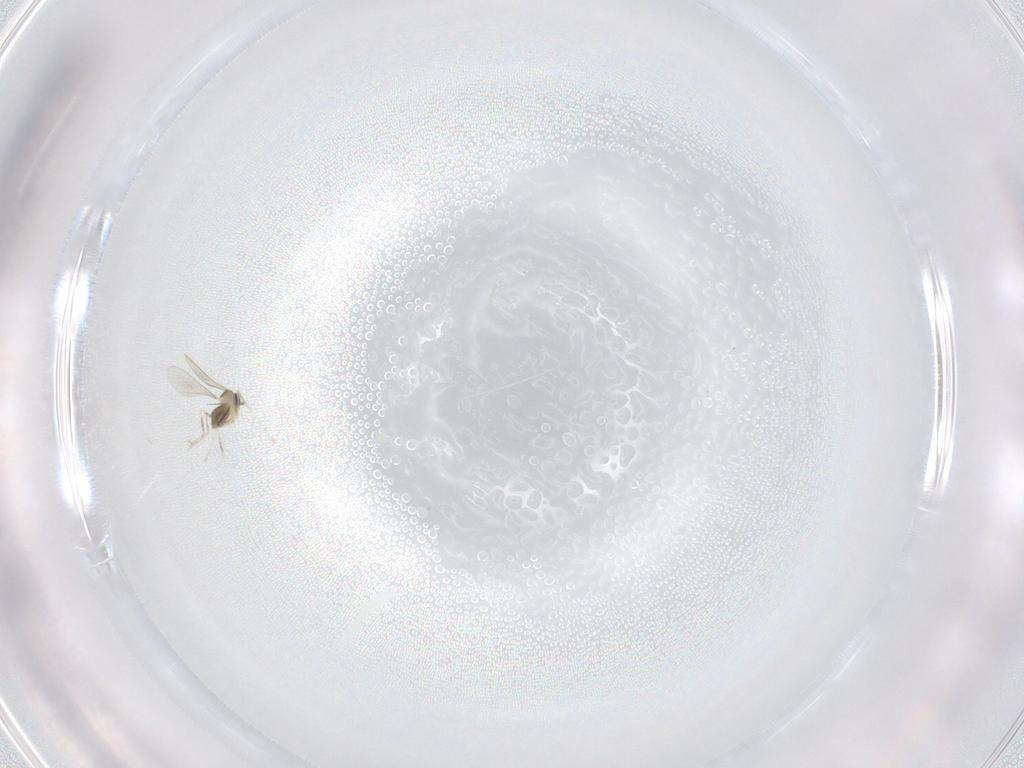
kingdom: Animalia
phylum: Arthropoda
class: Insecta
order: Diptera
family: Cecidomyiidae
